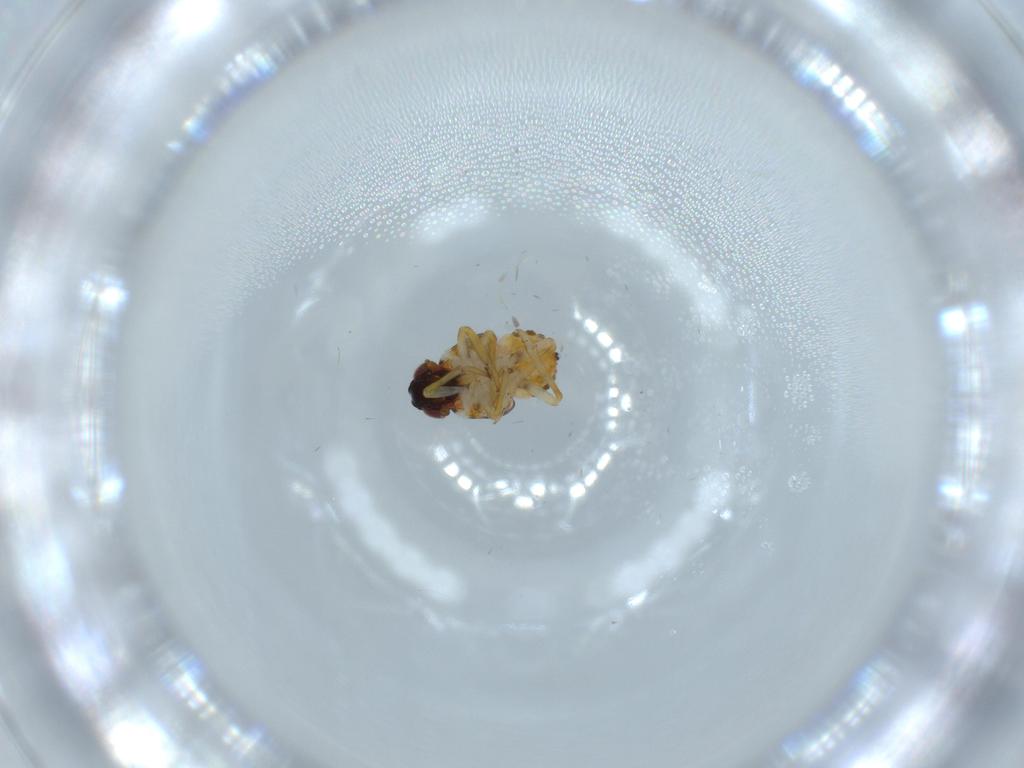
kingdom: Animalia
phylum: Arthropoda
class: Insecta
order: Hemiptera
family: Issidae
